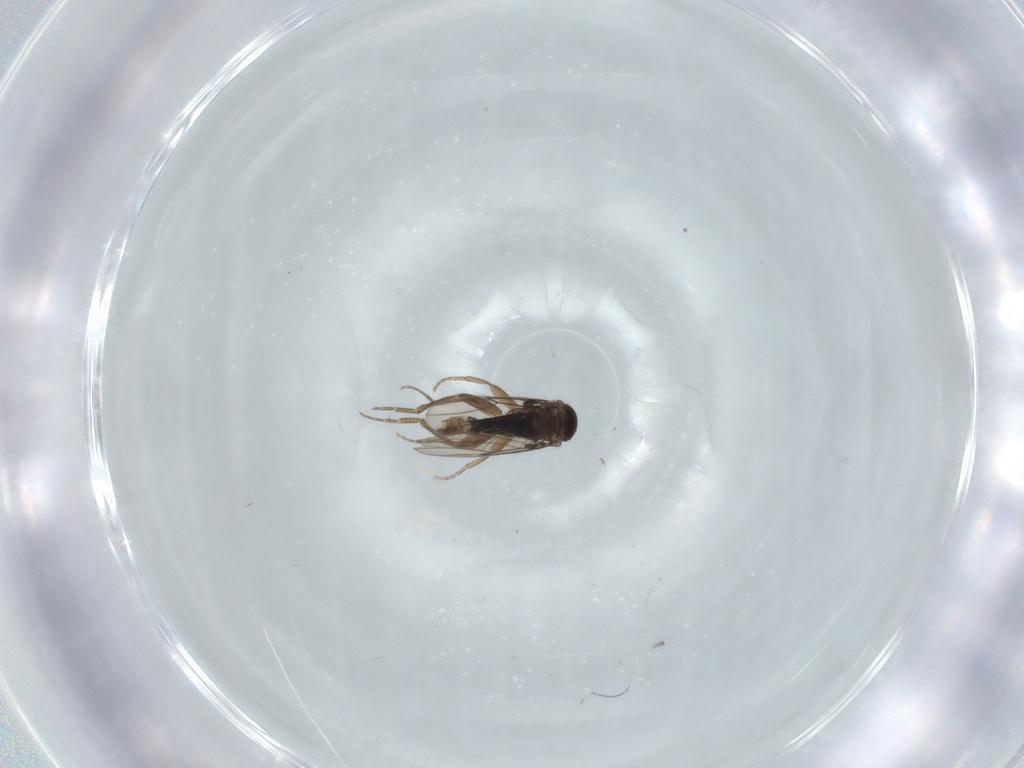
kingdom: Animalia
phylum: Arthropoda
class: Insecta
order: Diptera
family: Phoridae
